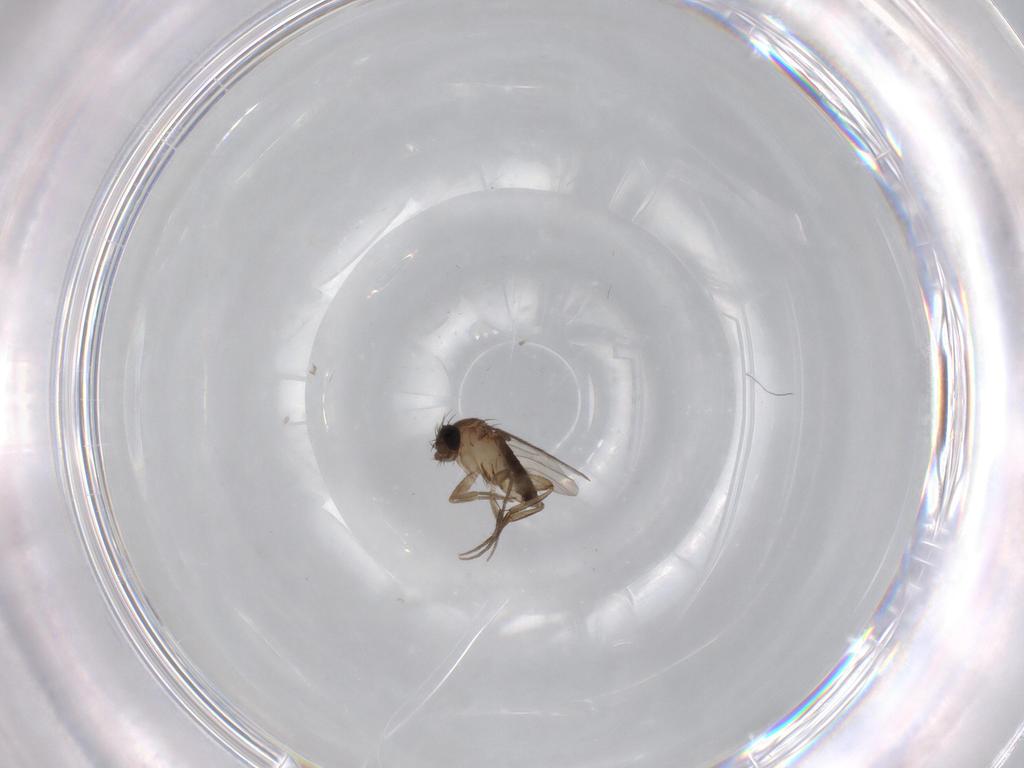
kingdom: Animalia
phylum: Arthropoda
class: Insecta
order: Diptera
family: Phoridae
